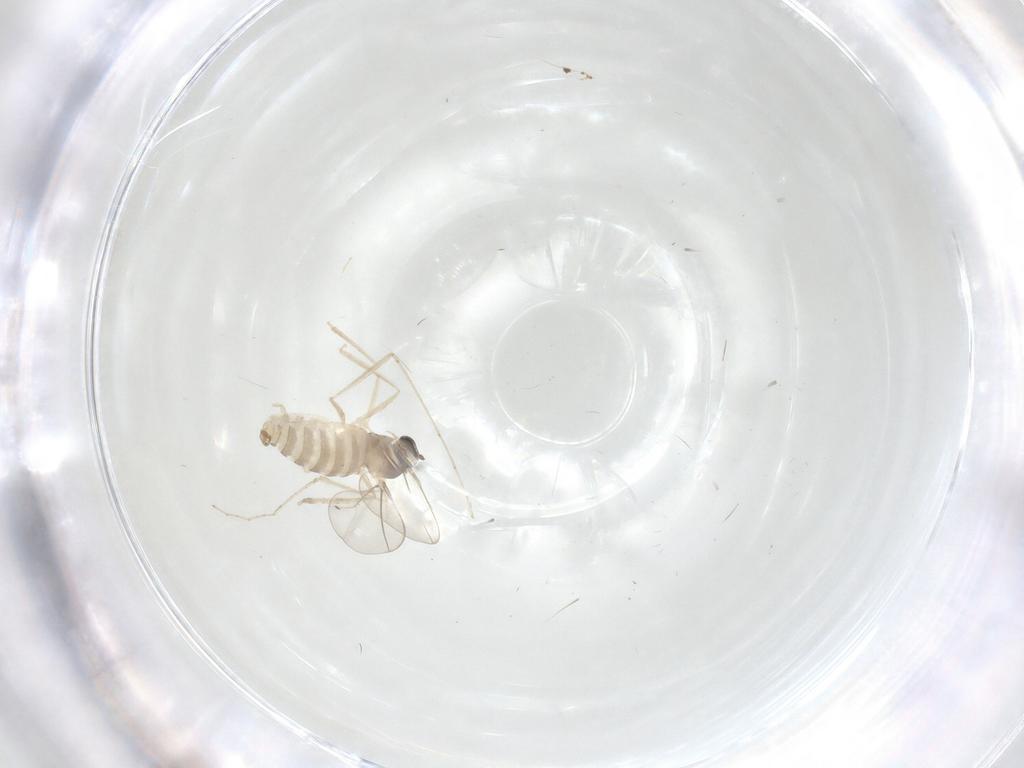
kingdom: Animalia
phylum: Arthropoda
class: Insecta
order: Diptera
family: Cecidomyiidae
